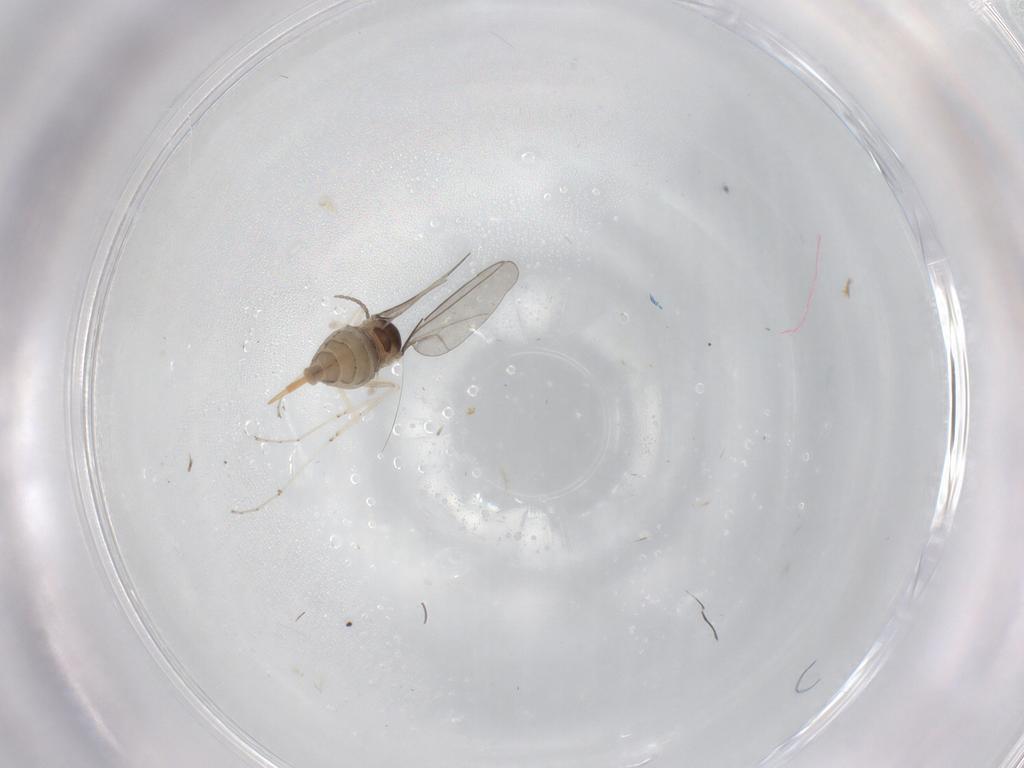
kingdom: Animalia
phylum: Arthropoda
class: Insecta
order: Diptera
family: Cecidomyiidae
